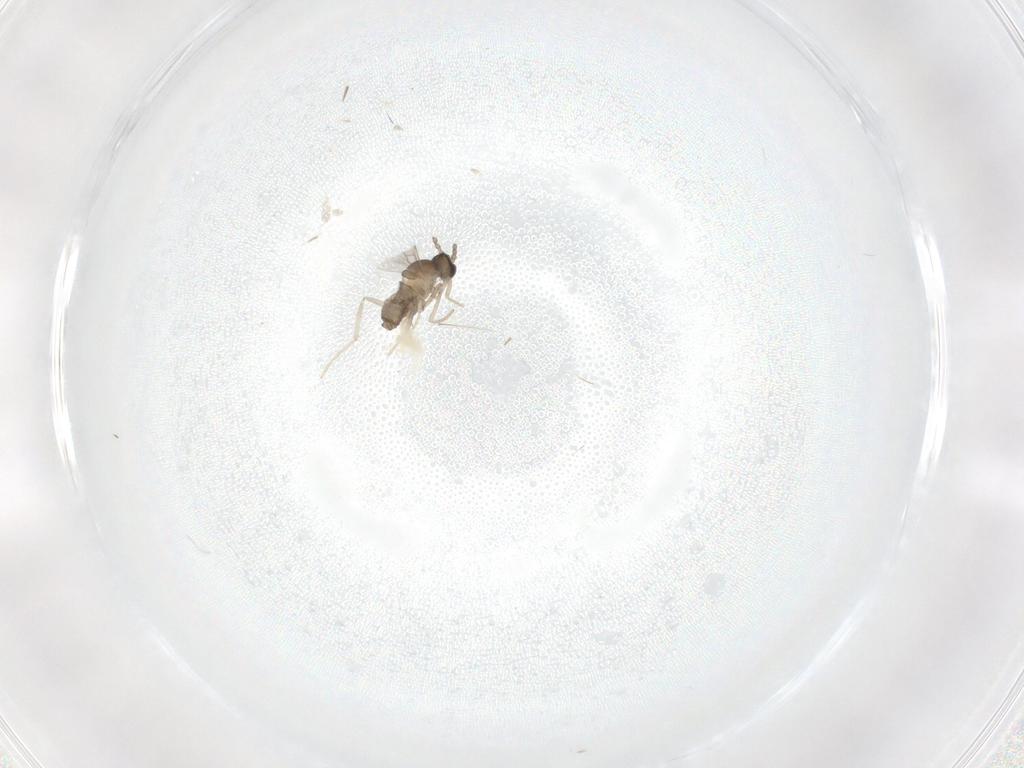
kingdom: Animalia
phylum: Arthropoda
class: Insecta
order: Diptera
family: Cecidomyiidae
